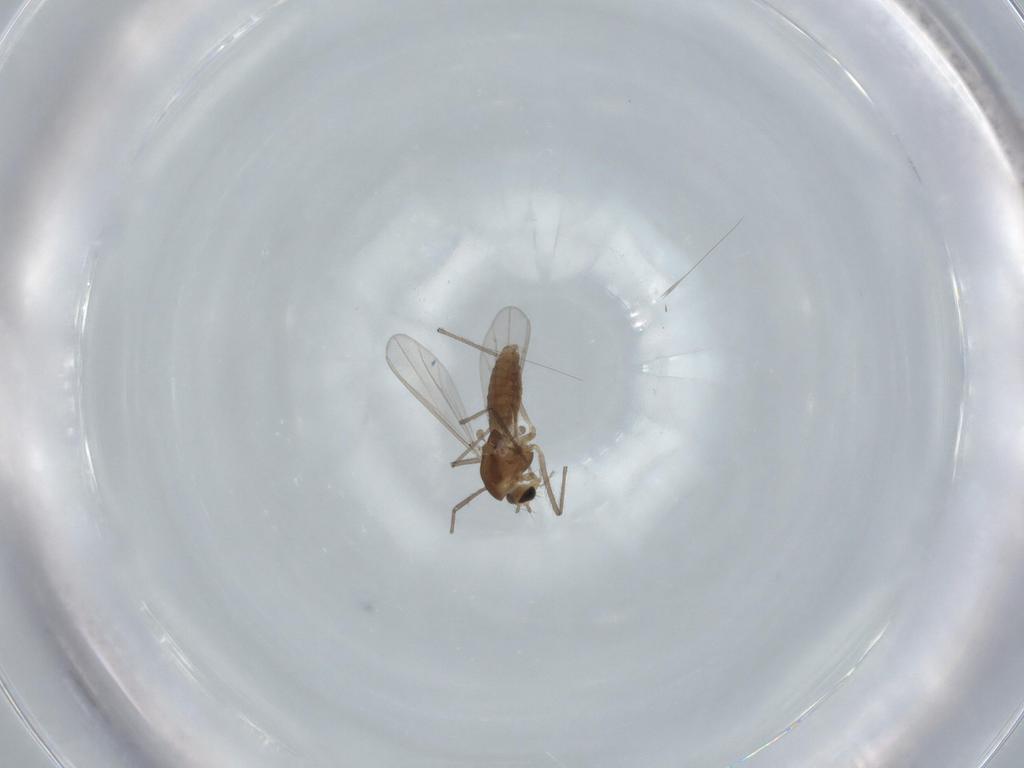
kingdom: Animalia
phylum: Arthropoda
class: Insecta
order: Diptera
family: Chironomidae
